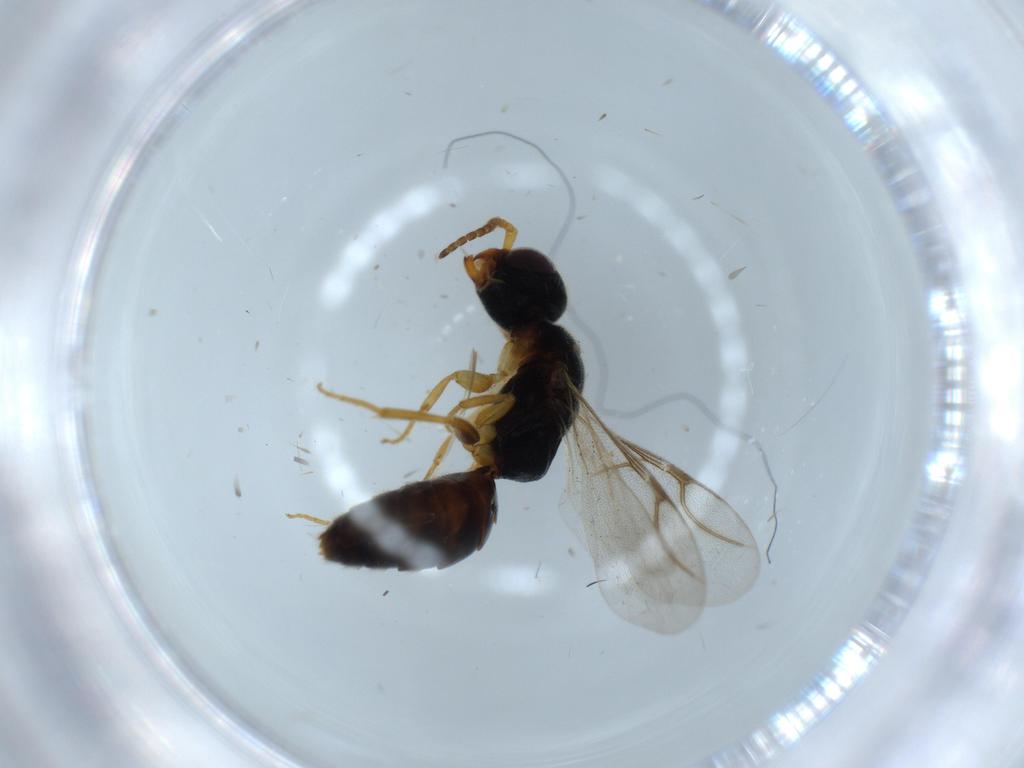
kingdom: Animalia
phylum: Arthropoda
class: Insecta
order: Hymenoptera
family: Bethylidae
